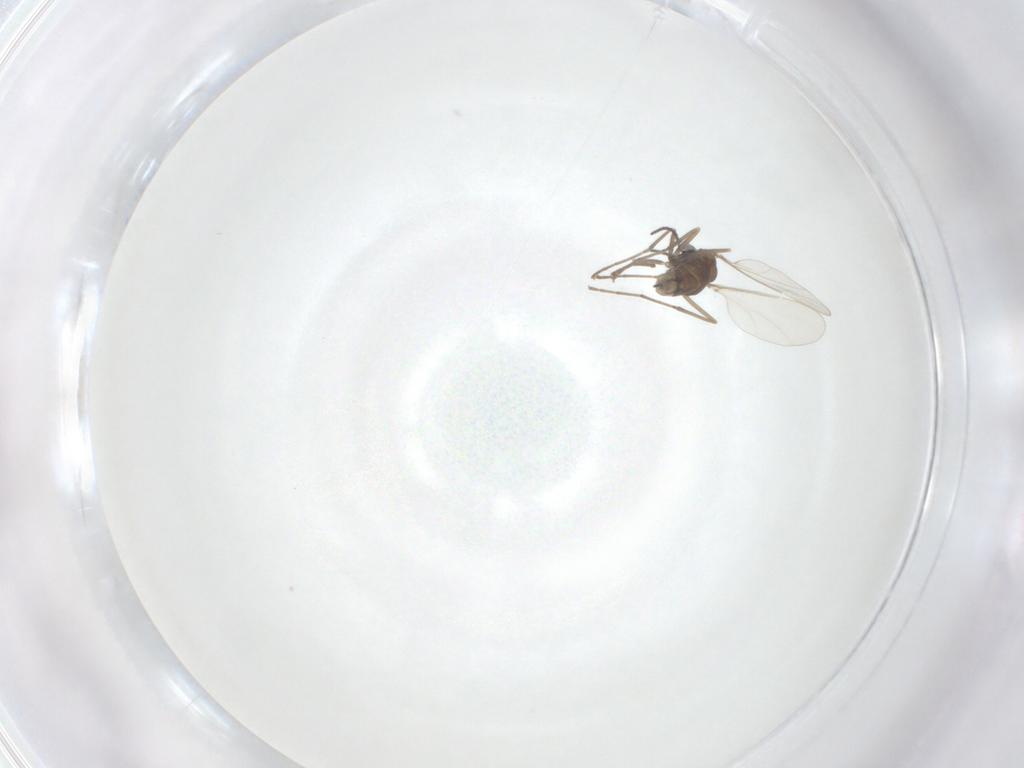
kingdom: Animalia
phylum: Arthropoda
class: Insecta
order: Diptera
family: Cecidomyiidae
